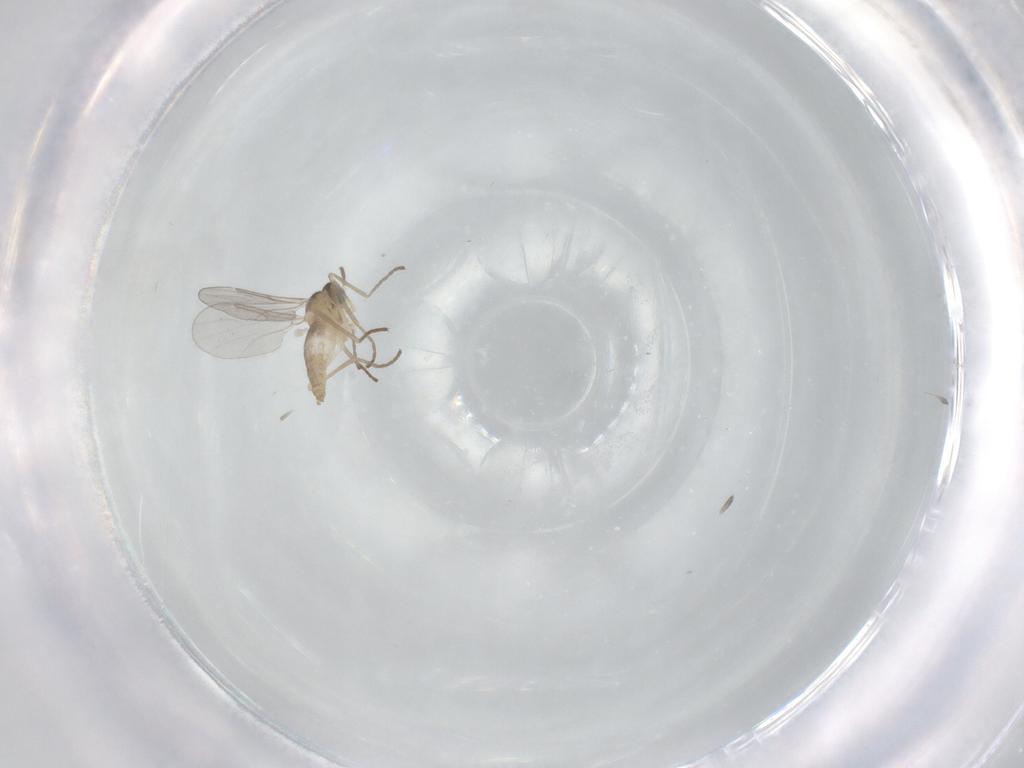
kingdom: Animalia
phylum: Arthropoda
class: Insecta
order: Diptera
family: Cecidomyiidae
